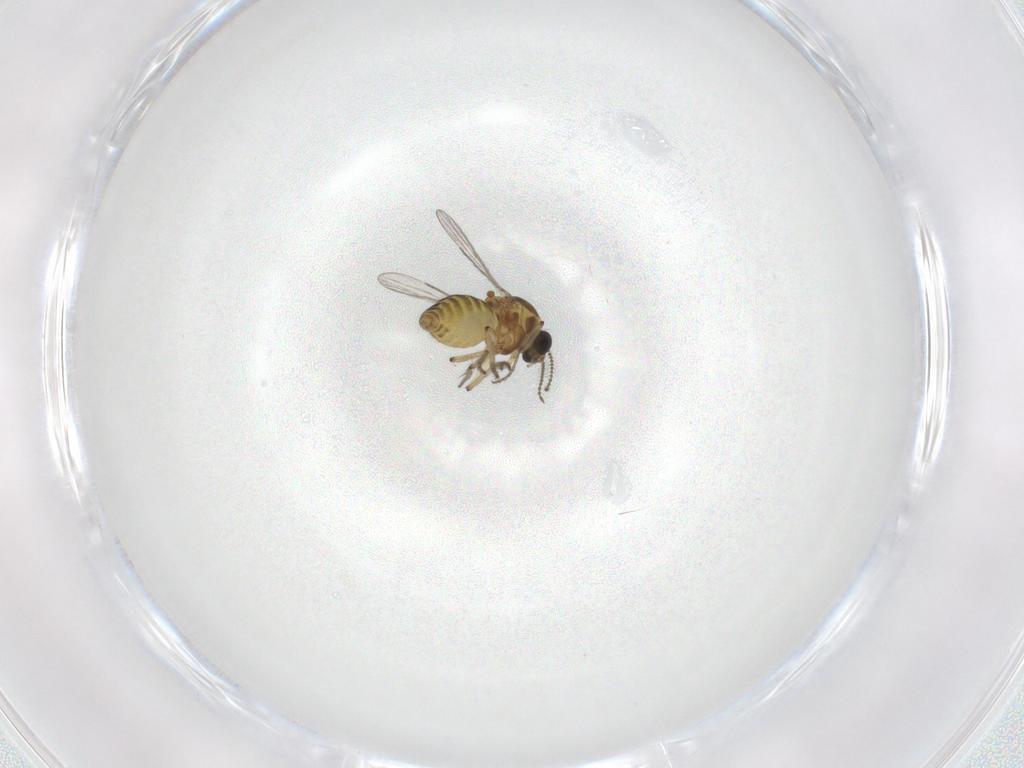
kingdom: Animalia
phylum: Arthropoda
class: Insecta
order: Diptera
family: Ceratopogonidae
